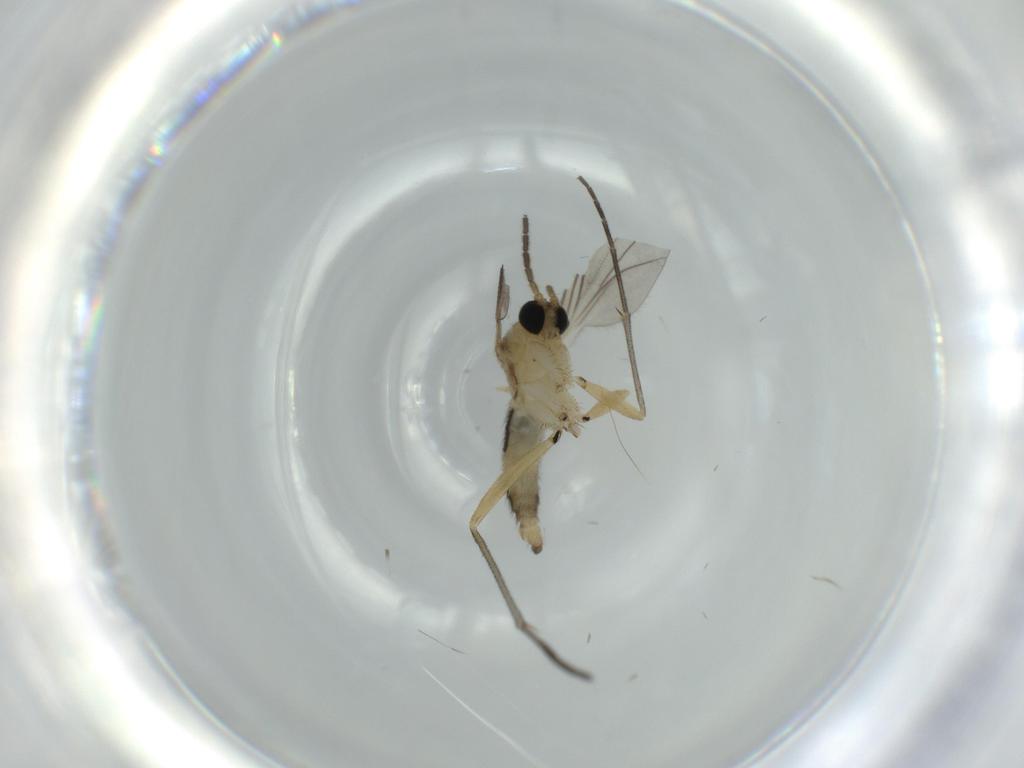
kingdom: Animalia
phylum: Arthropoda
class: Insecta
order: Diptera
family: Sciaridae
